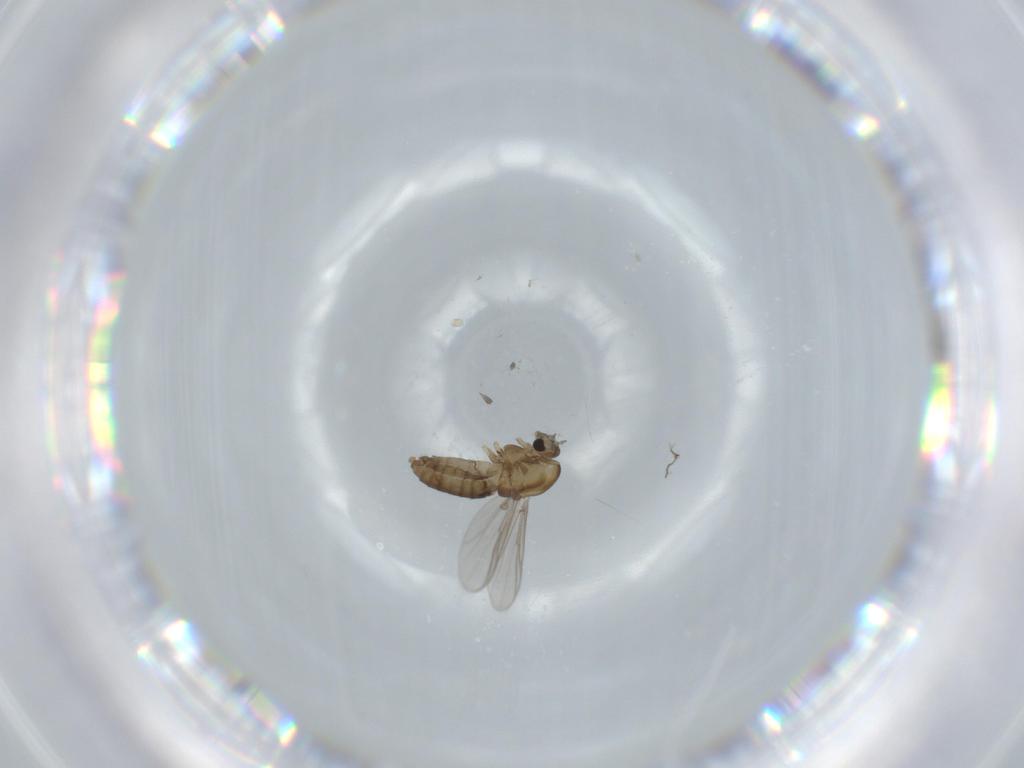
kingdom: Animalia
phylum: Arthropoda
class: Insecta
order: Diptera
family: Chironomidae
